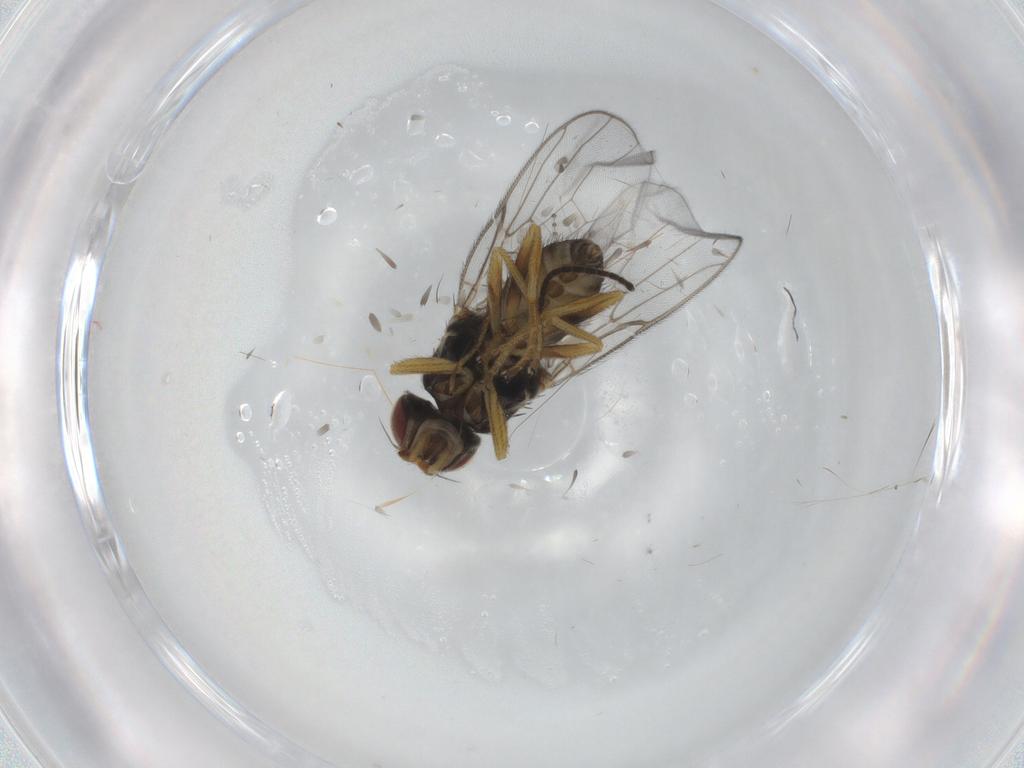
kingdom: Animalia
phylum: Arthropoda
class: Insecta
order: Diptera
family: Chloropidae
